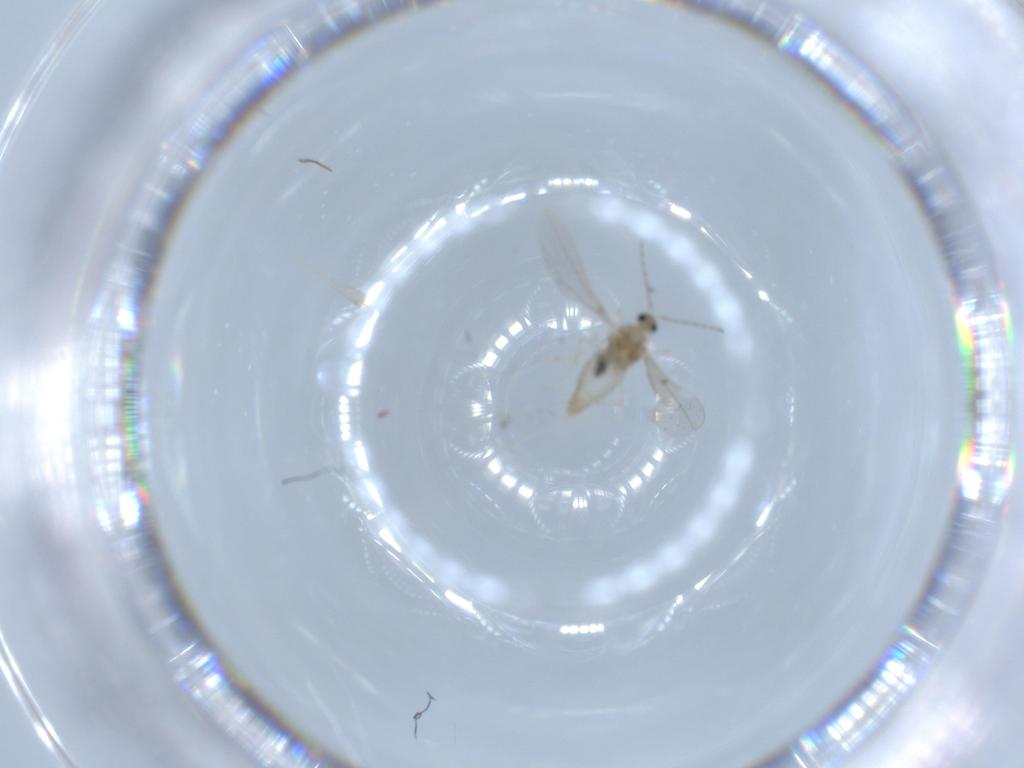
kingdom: Animalia
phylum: Arthropoda
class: Insecta
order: Diptera
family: Cecidomyiidae
